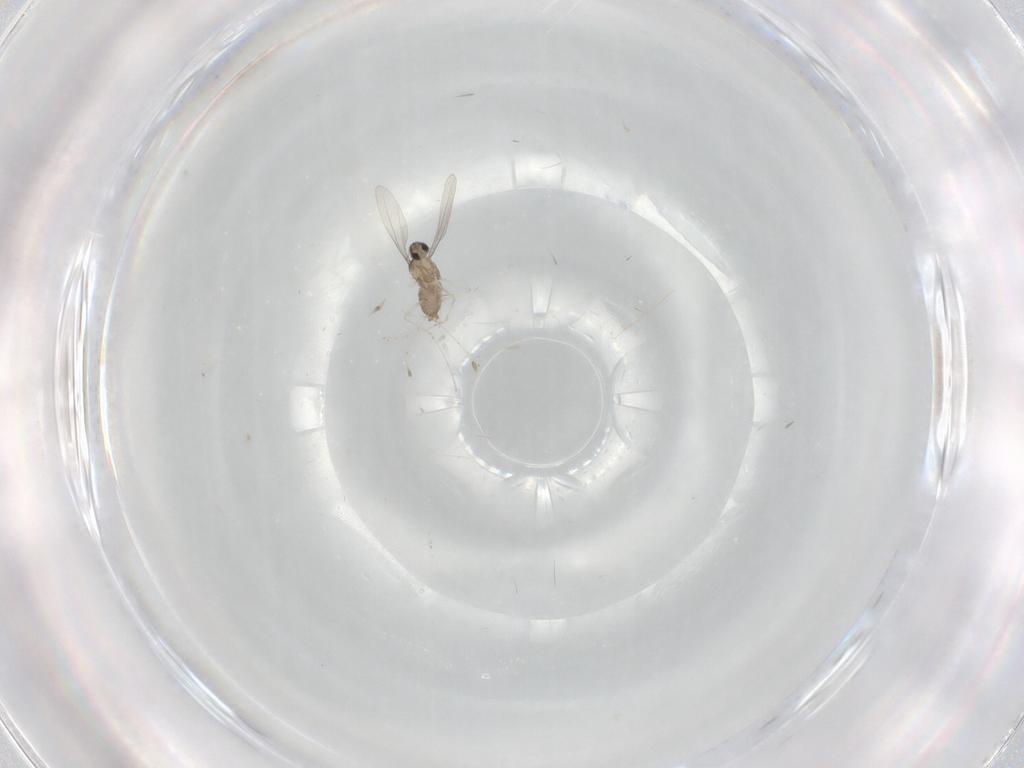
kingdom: Animalia
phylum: Arthropoda
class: Insecta
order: Diptera
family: Cecidomyiidae
